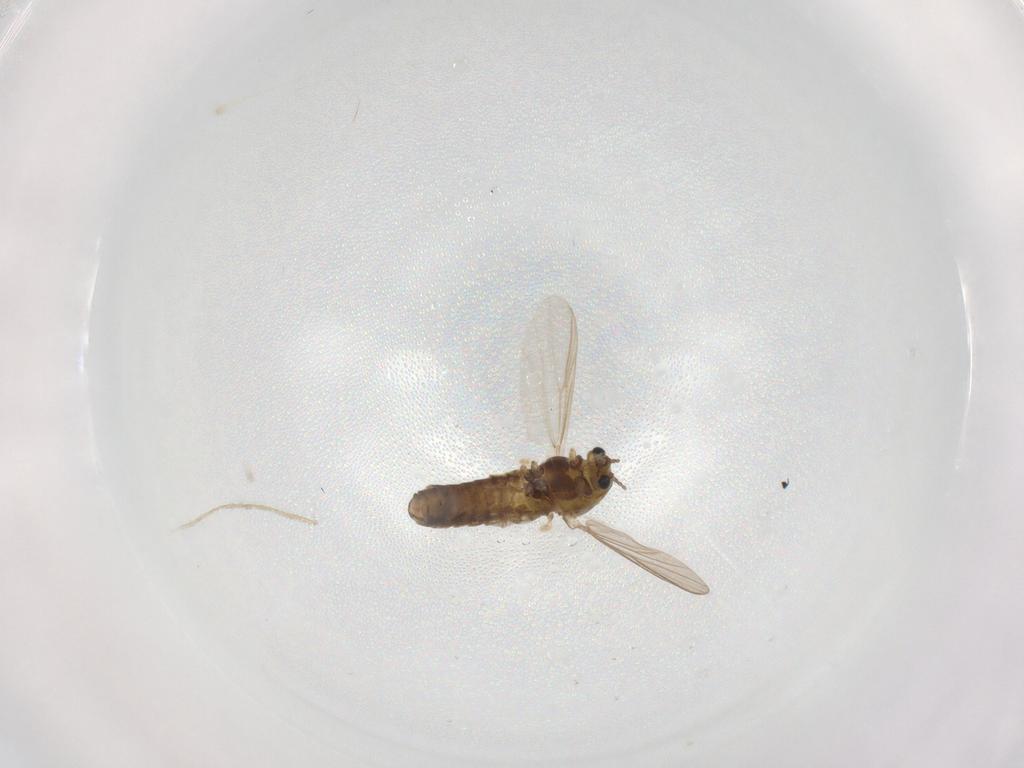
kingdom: Animalia
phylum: Arthropoda
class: Insecta
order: Diptera
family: Chironomidae
